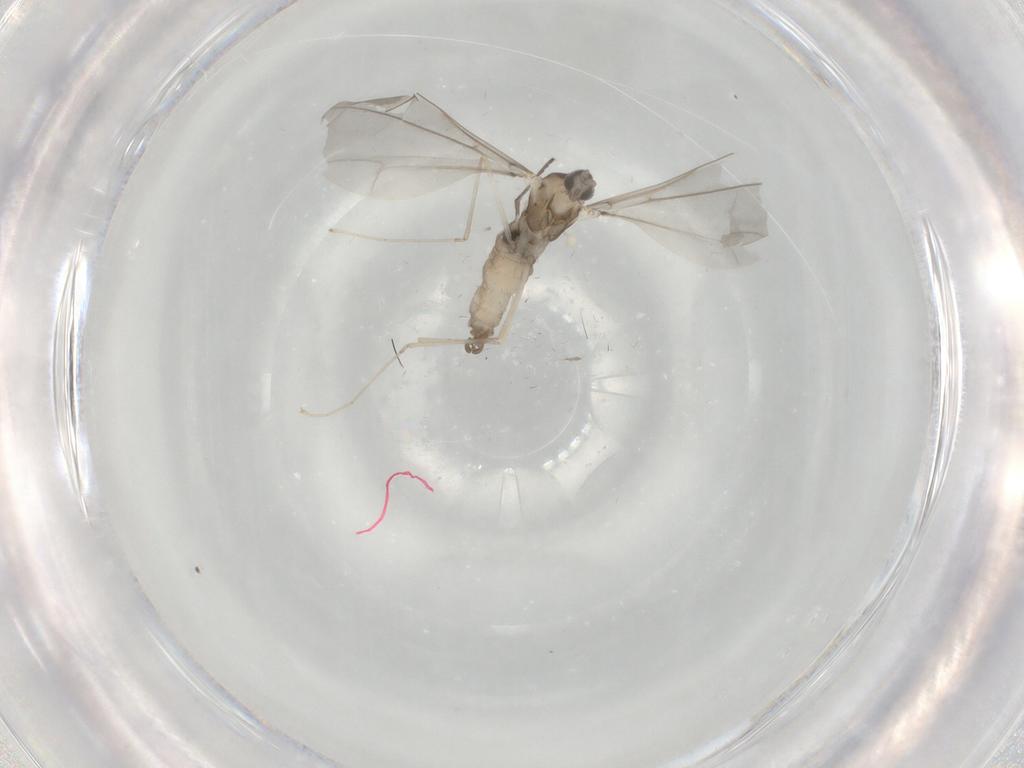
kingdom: Animalia
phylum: Arthropoda
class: Insecta
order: Diptera
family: Cecidomyiidae
